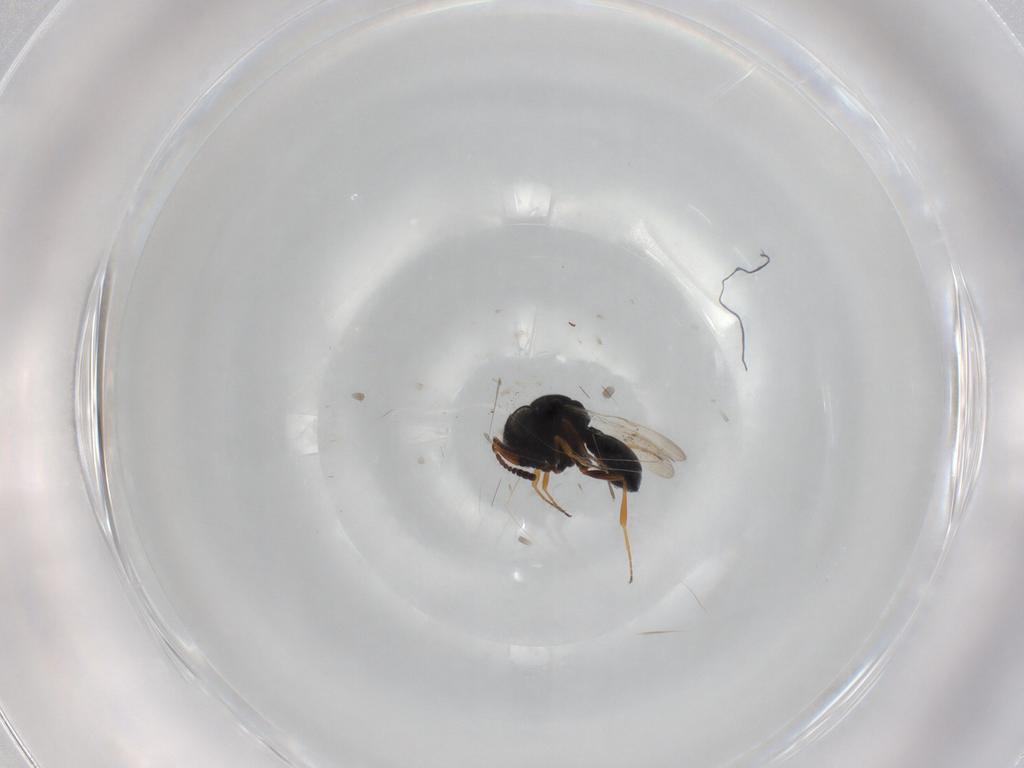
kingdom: Animalia
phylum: Arthropoda
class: Insecta
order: Hymenoptera
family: Scelionidae
